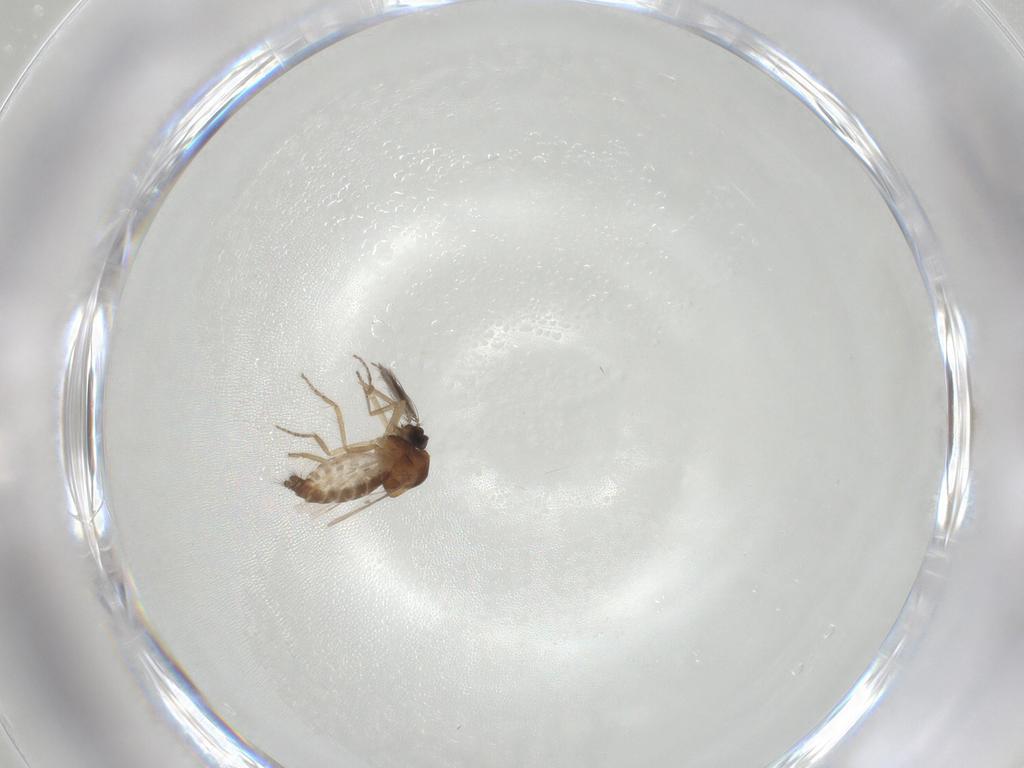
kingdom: Animalia
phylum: Arthropoda
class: Insecta
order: Diptera
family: Ceratopogonidae
